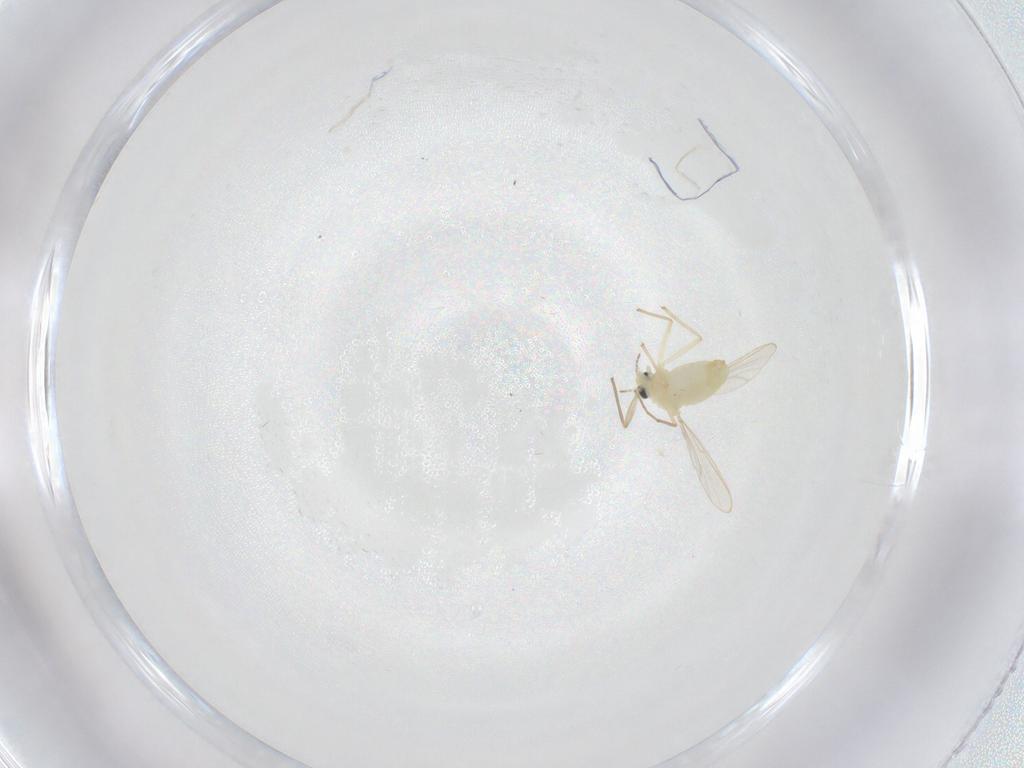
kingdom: Animalia
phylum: Arthropoda
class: Insecta
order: Diptera
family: Chironomidae
